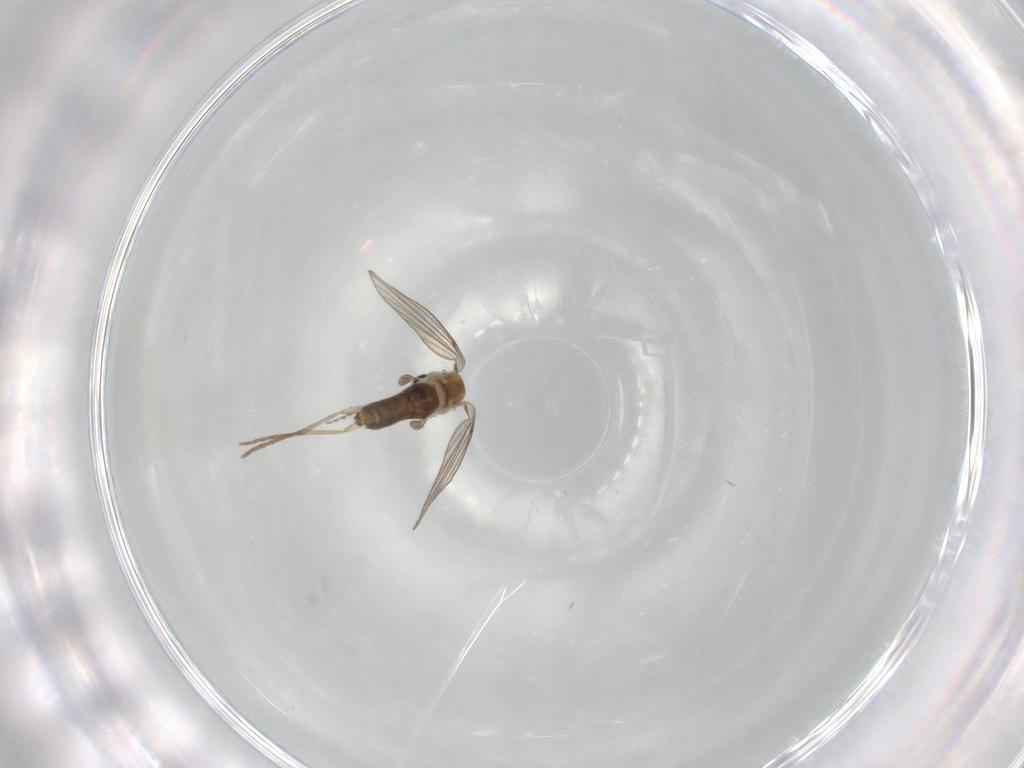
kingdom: Animalia
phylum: Arthropoda
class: Insecta
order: Diptera
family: Psychodidae
